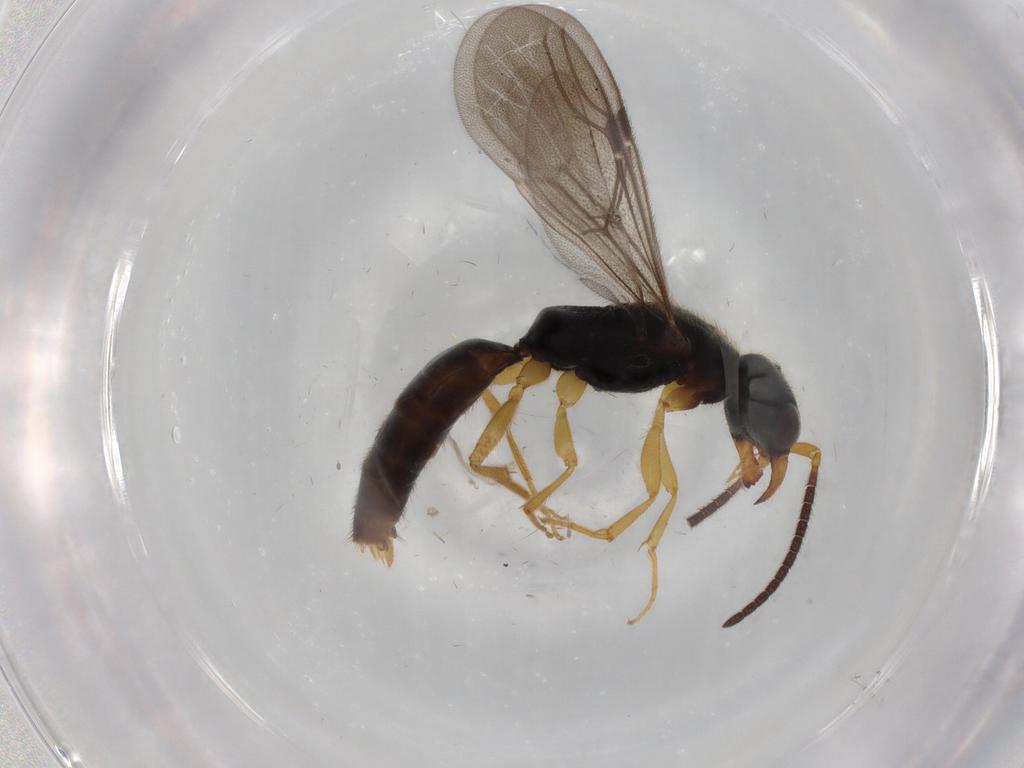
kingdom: Animalia
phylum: Arthropoda
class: Insecta
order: Hymenoptera
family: Bethylidae
